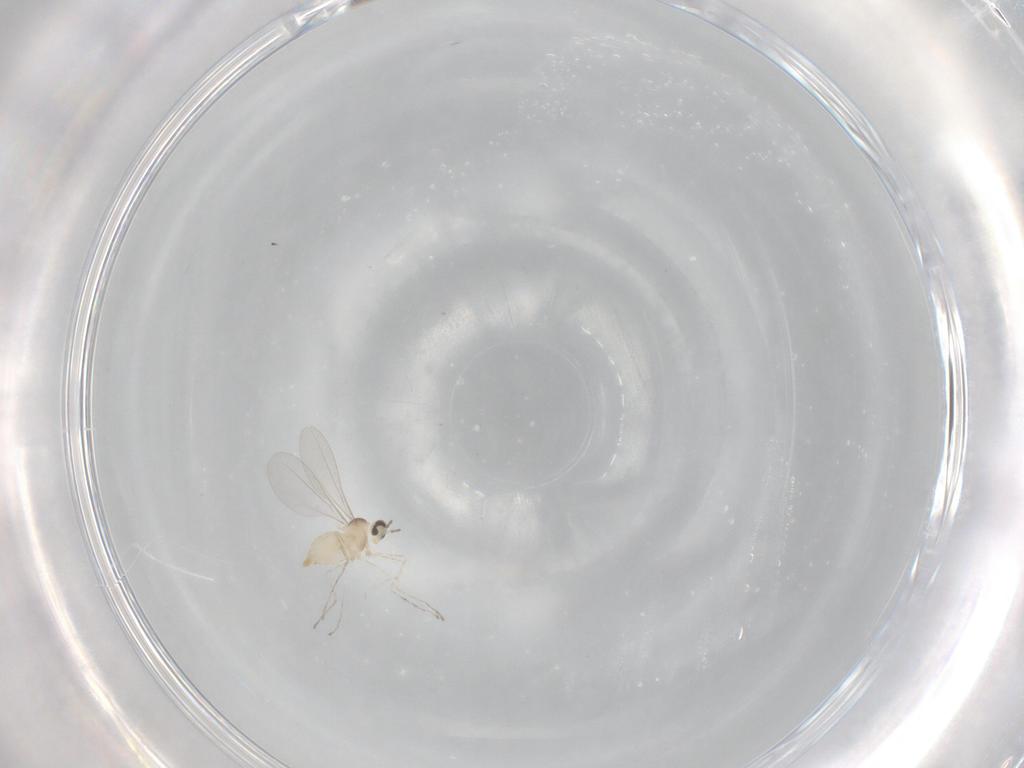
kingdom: Animalia
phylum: Arthropoda
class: Insecta
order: Diptera
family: Cecidomyiidae
